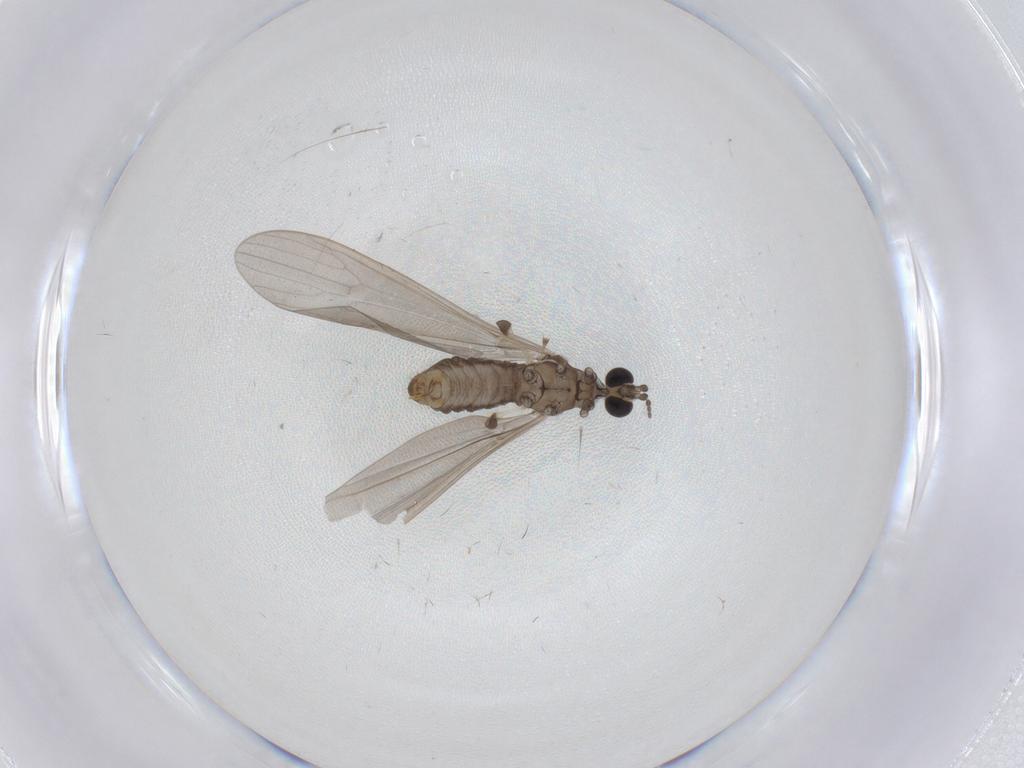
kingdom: Animalia
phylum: Arthropoda
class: Insecta
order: Diptera
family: Limoniidae
